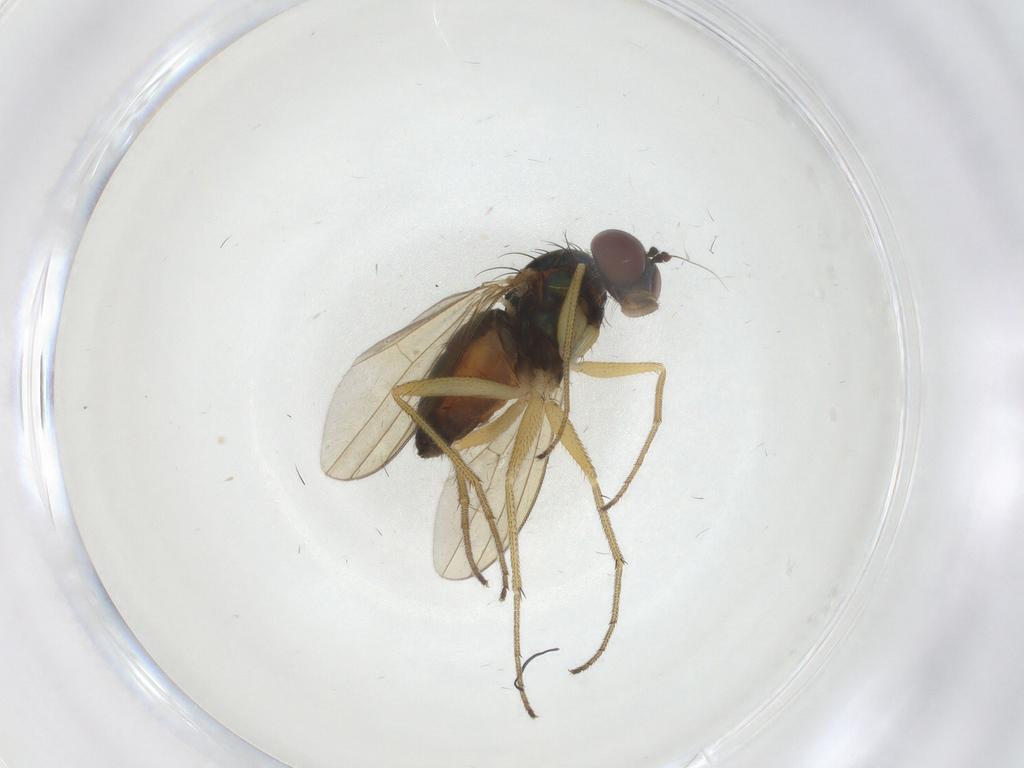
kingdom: Animalia
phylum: Arthropoda
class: Insecta
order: Diptera
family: Dolichopodidae
